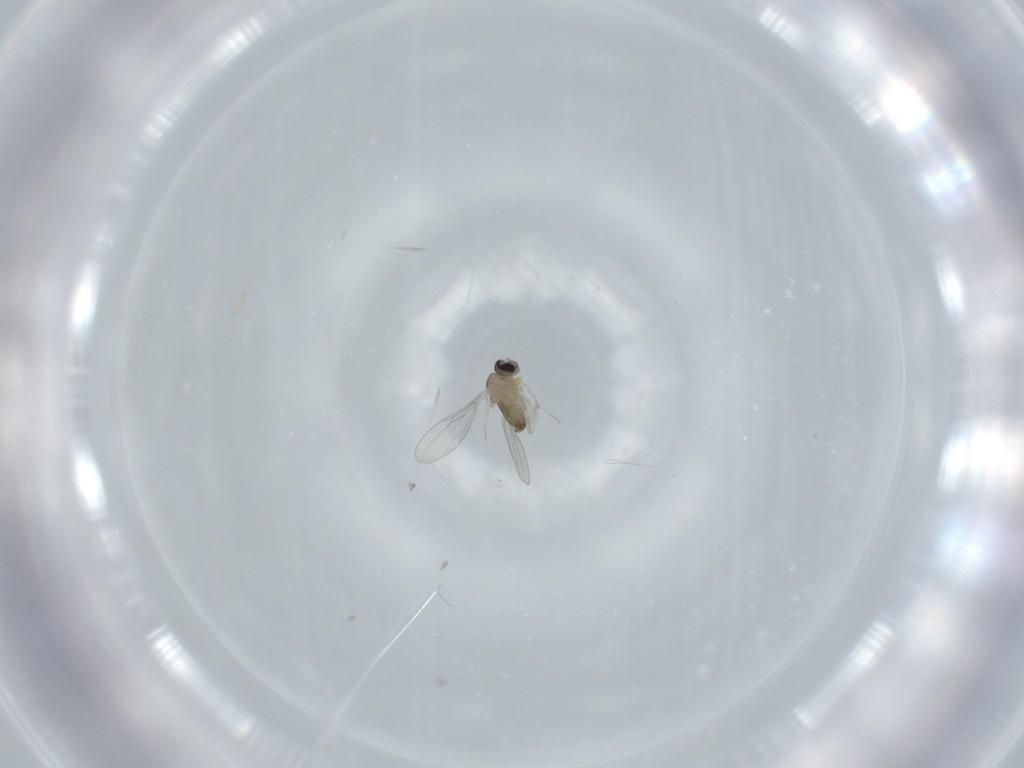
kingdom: Animalia
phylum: Arthropoda
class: Insecta
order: Diptera
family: Cecidomyiidae
